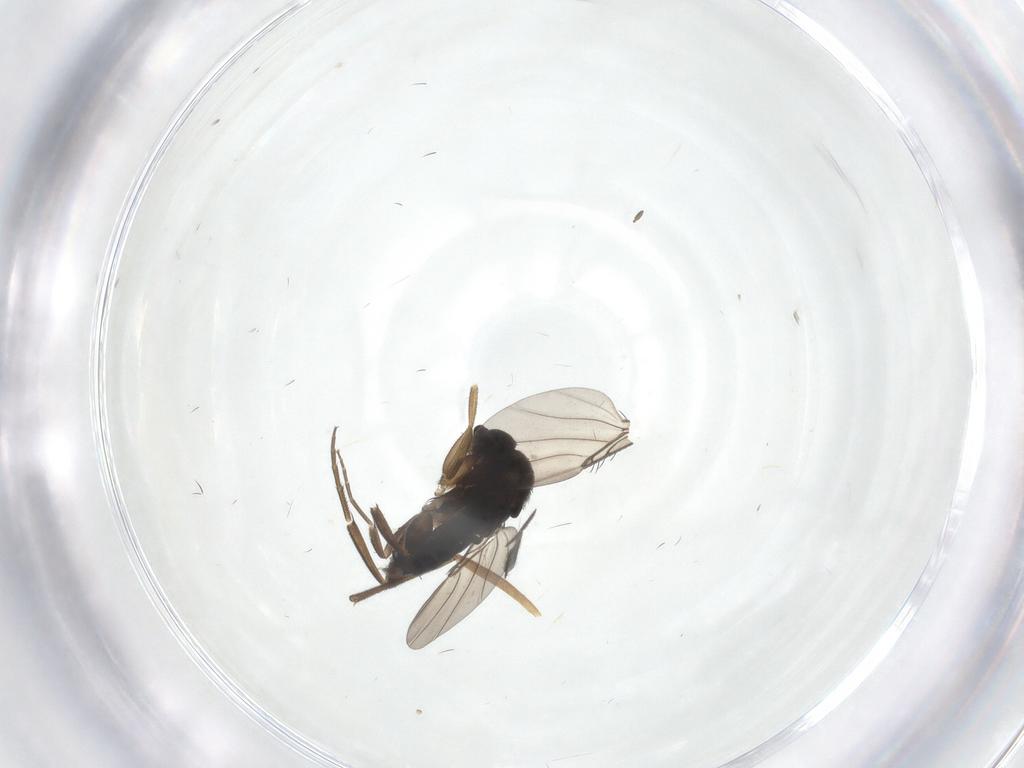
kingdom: Animalia
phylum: Arthropoda
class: Insecta
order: Diptera
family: Phoridae
